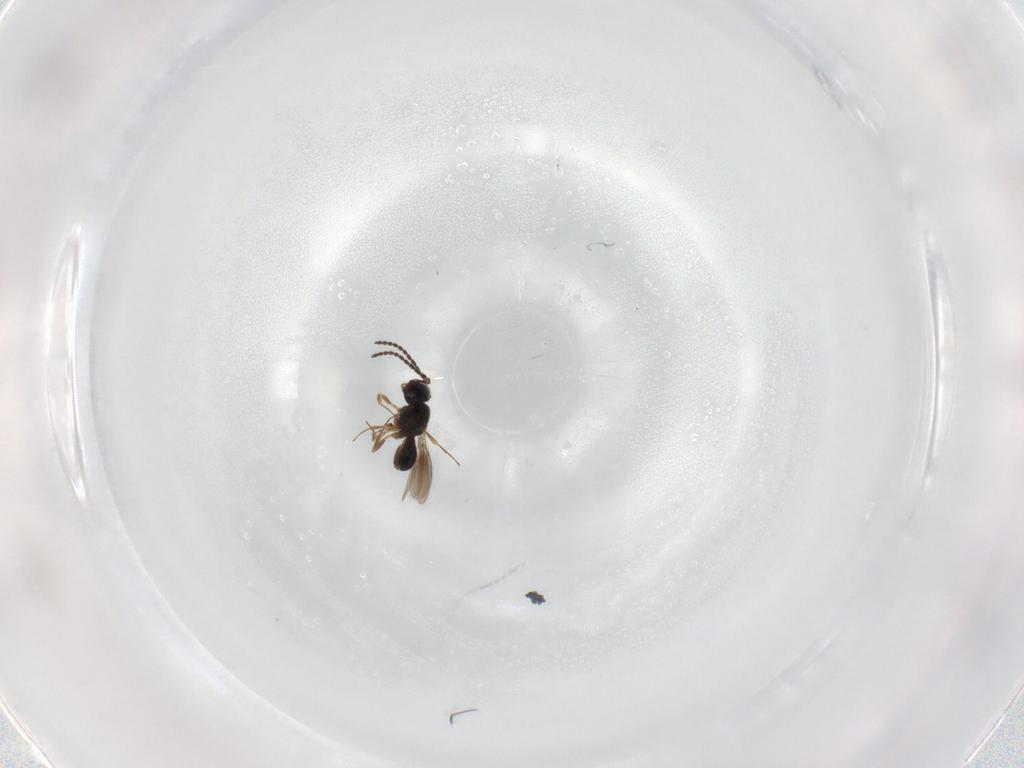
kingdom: Animalia
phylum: Arthropoda
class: Insecta
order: Hymenoptera
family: Scelionidae
